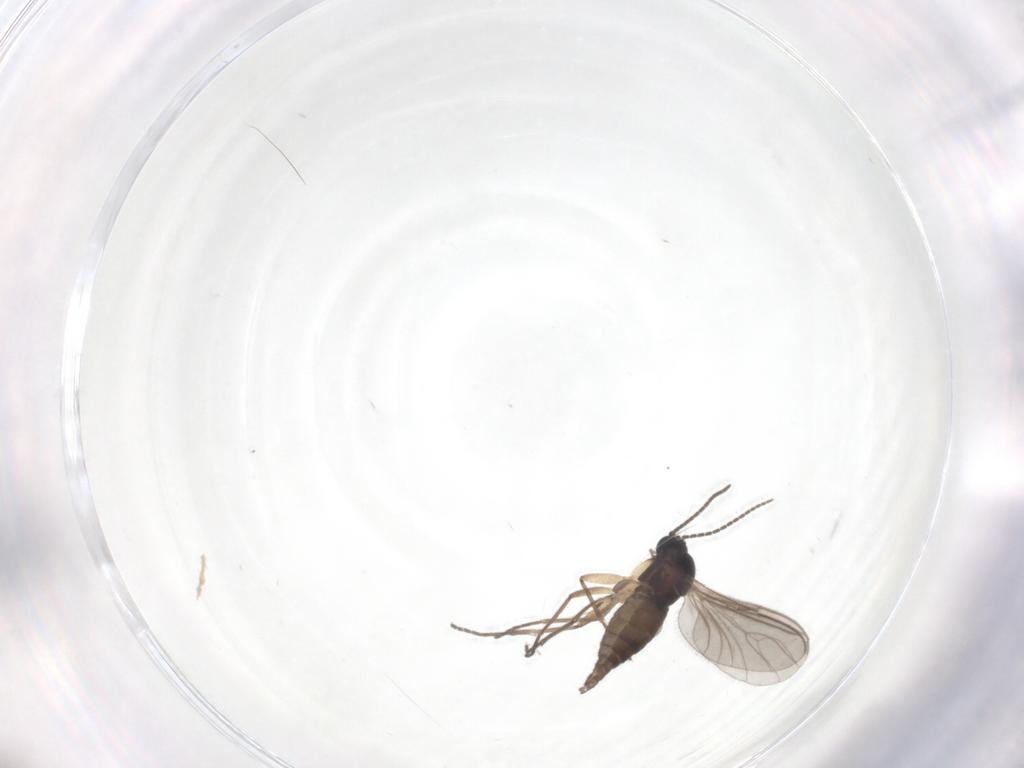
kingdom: Animalia
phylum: Arthropoda
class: Insecta
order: Diptera
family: Sciaridae
